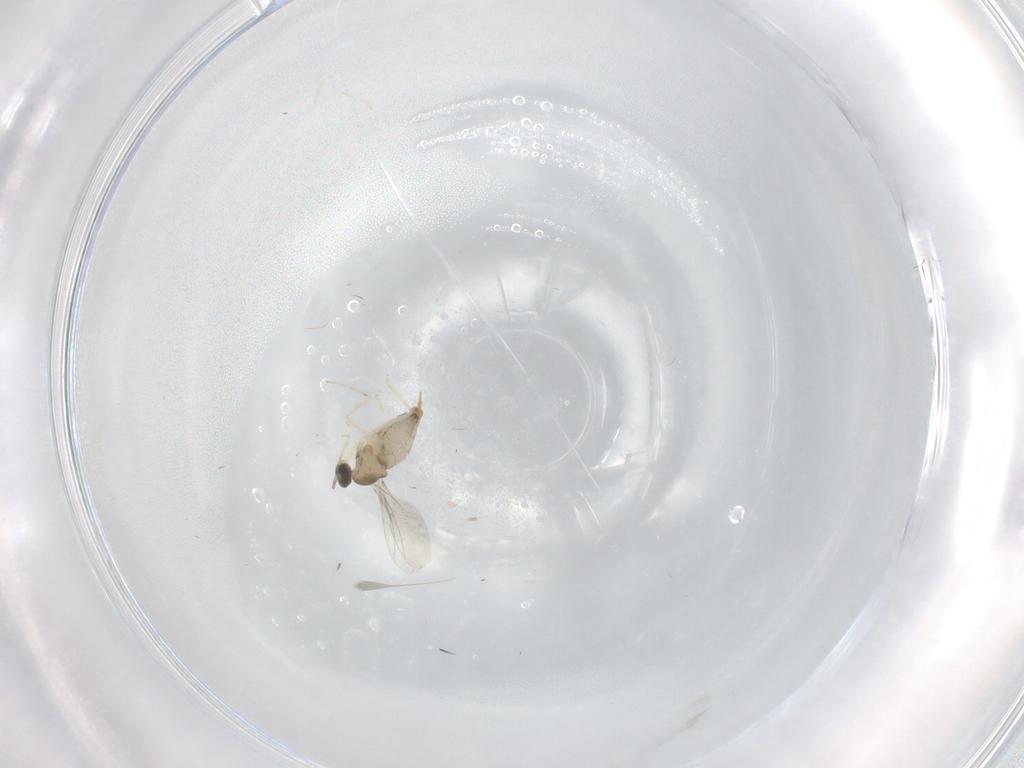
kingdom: Animalia
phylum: Arthropoda
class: Insecta
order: Diptera
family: Cecidomyiidae
